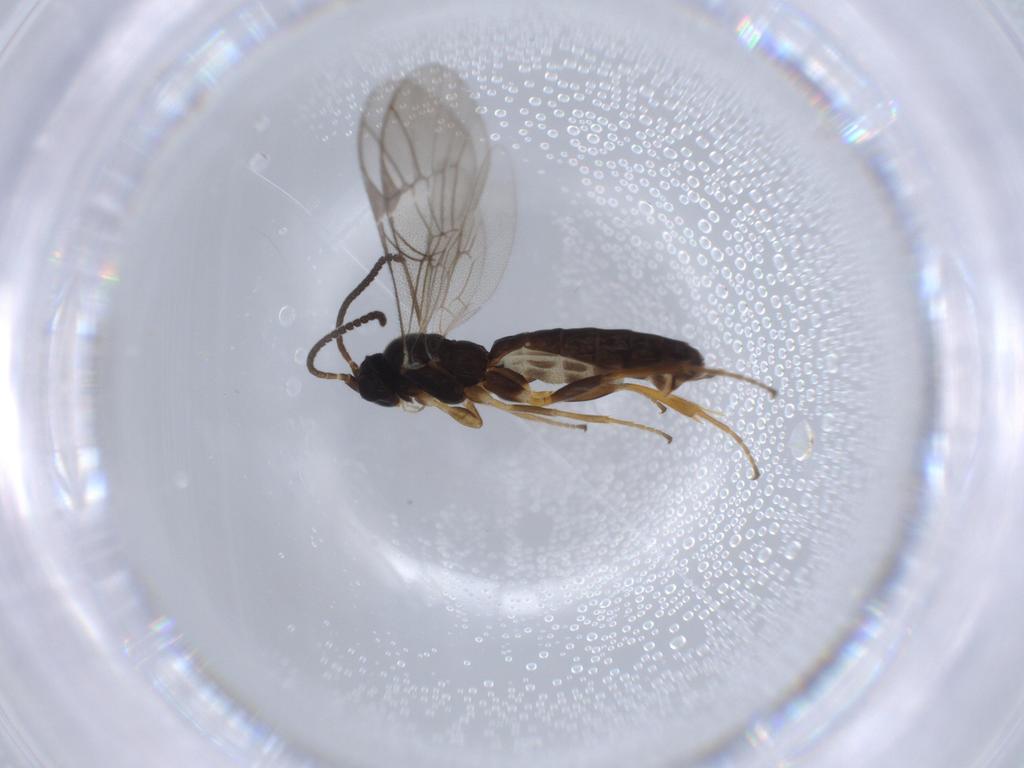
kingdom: Animalia
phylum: Arthropoda
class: Insecta
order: Hymenoptera
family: Ichneumonidae
